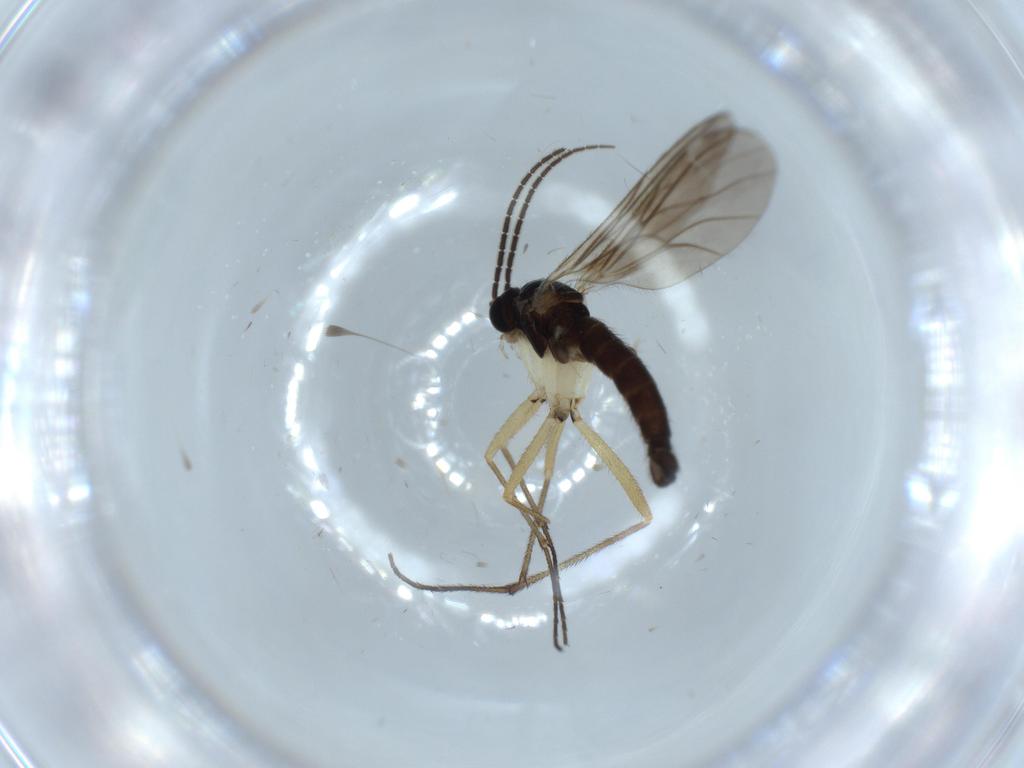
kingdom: Animalia
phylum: Arthropoda
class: Insecta
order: Diptera
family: Sciaridae
